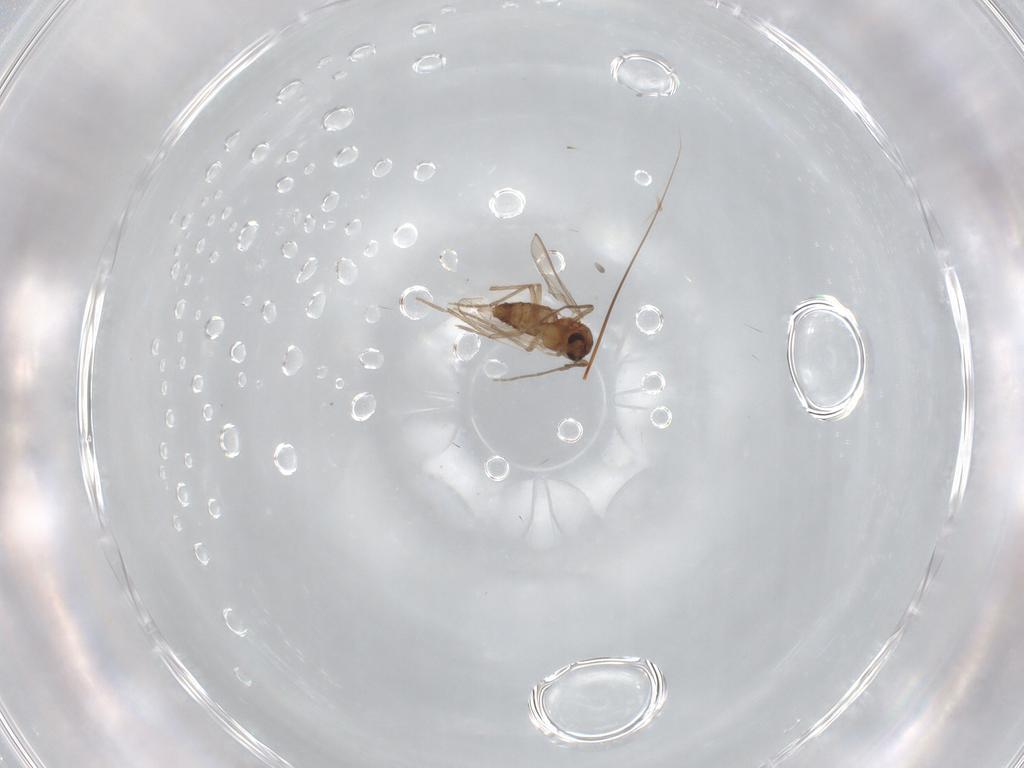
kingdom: Animalia
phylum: Arthropoda
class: Insecta
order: Diptera
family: Dolichopodidae
